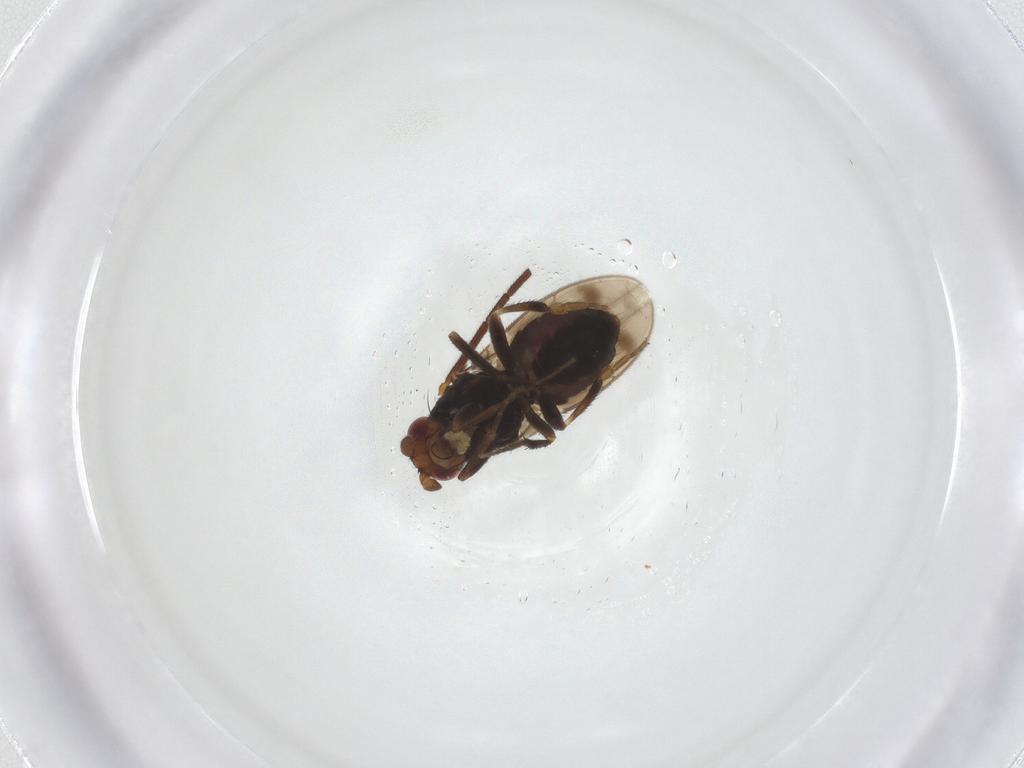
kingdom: Animalia
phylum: Arthropoda
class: Insecta
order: Diptera
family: Sphaeroceridae
